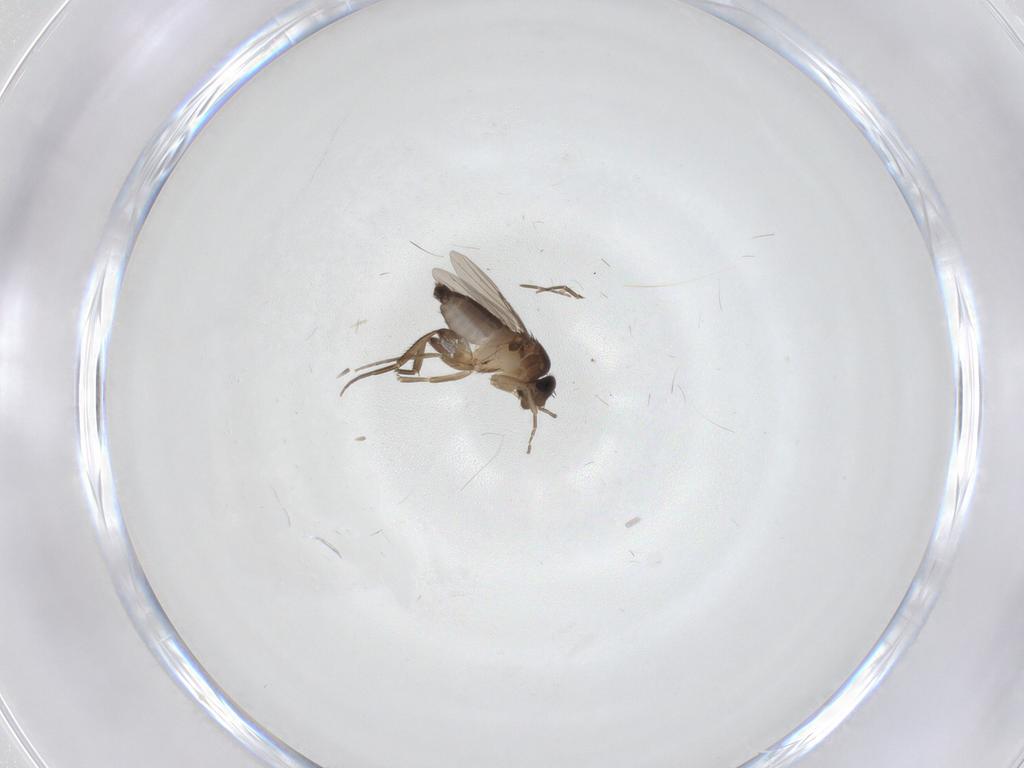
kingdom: Animalia
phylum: Arthropoda
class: Insecta
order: Diptera
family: Phoridae
